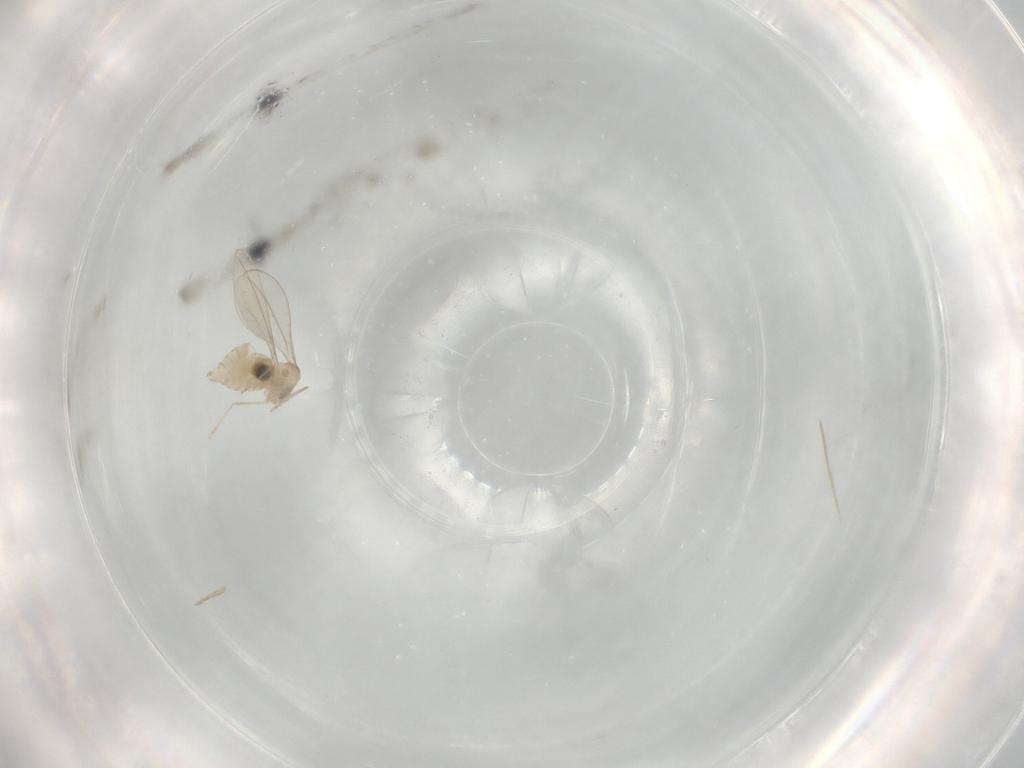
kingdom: Animalia
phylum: Arthropoda
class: Insecta
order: Diptera
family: Cecidomyiidae
